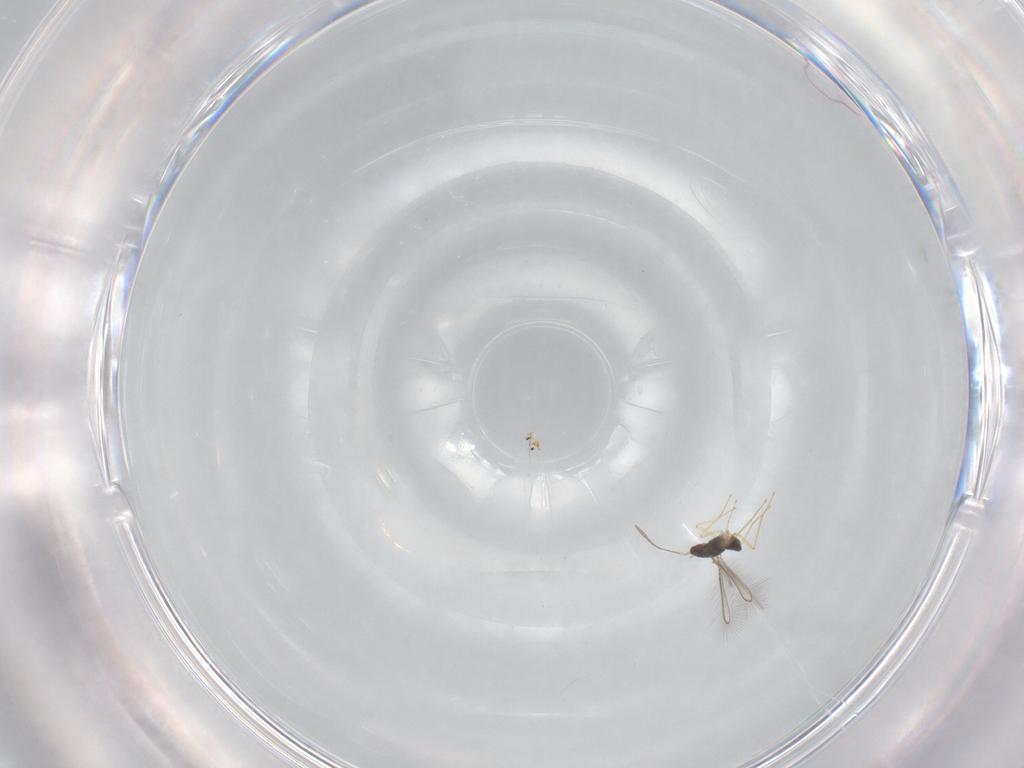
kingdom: Animalia
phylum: Arthropoda
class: Insecta
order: Hymenoptera
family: Mymaridae
